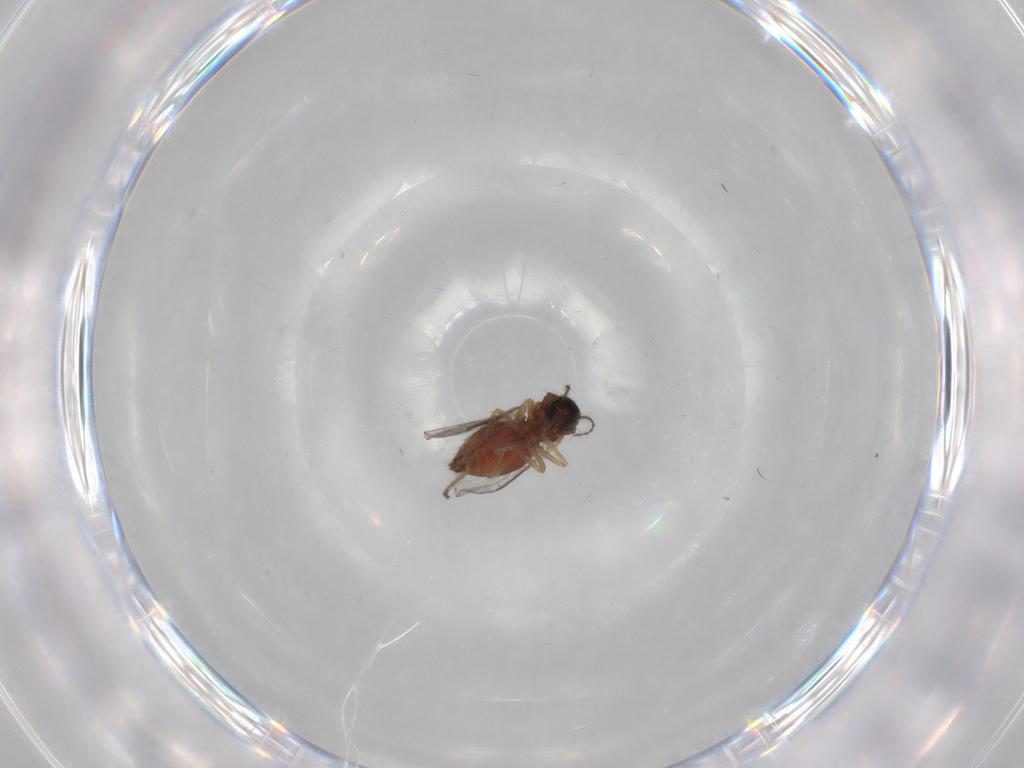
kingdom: Animalia
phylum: Arthropoda
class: Insecta
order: Diptera
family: Ceratopogonidae
